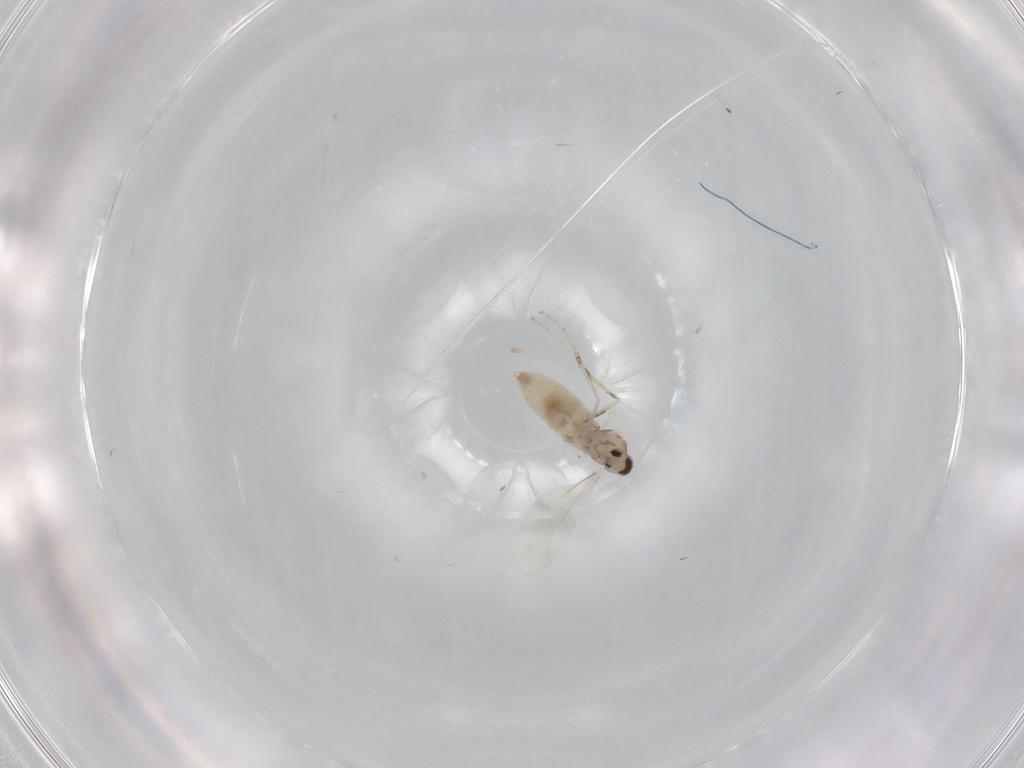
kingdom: Animalia
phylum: Arthropoda
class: Insecta
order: Diptera
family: Cecidomyiidae
